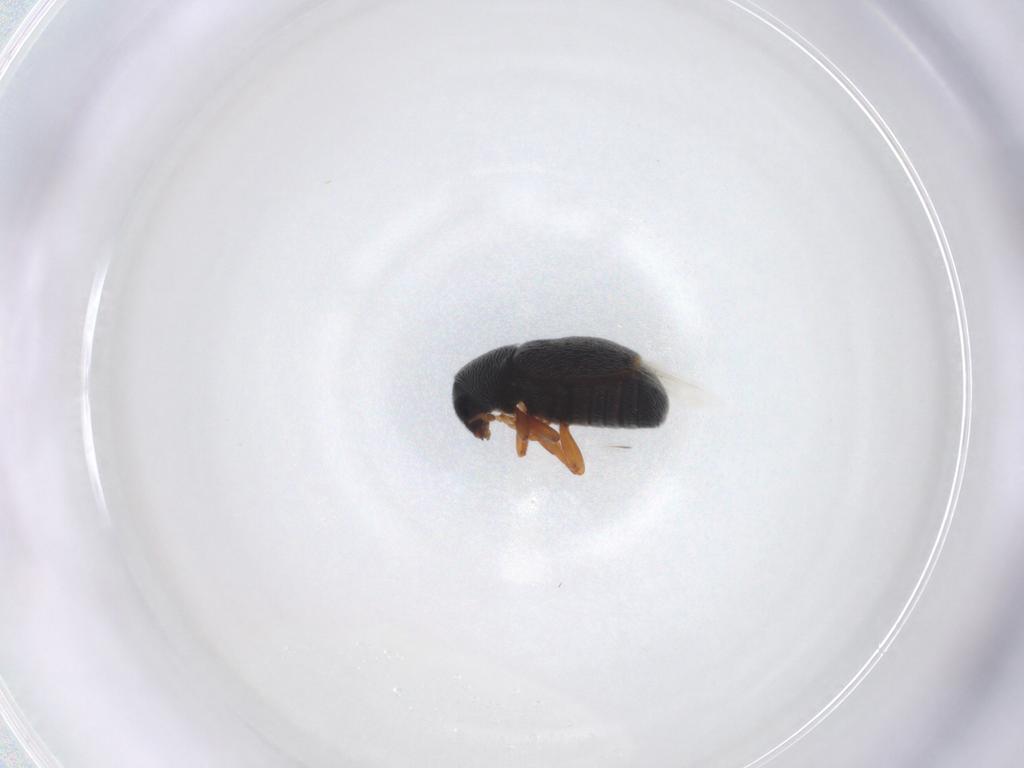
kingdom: Animalia
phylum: Arthropoda
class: Insecta
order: Coleoptera
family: Anthribidae
